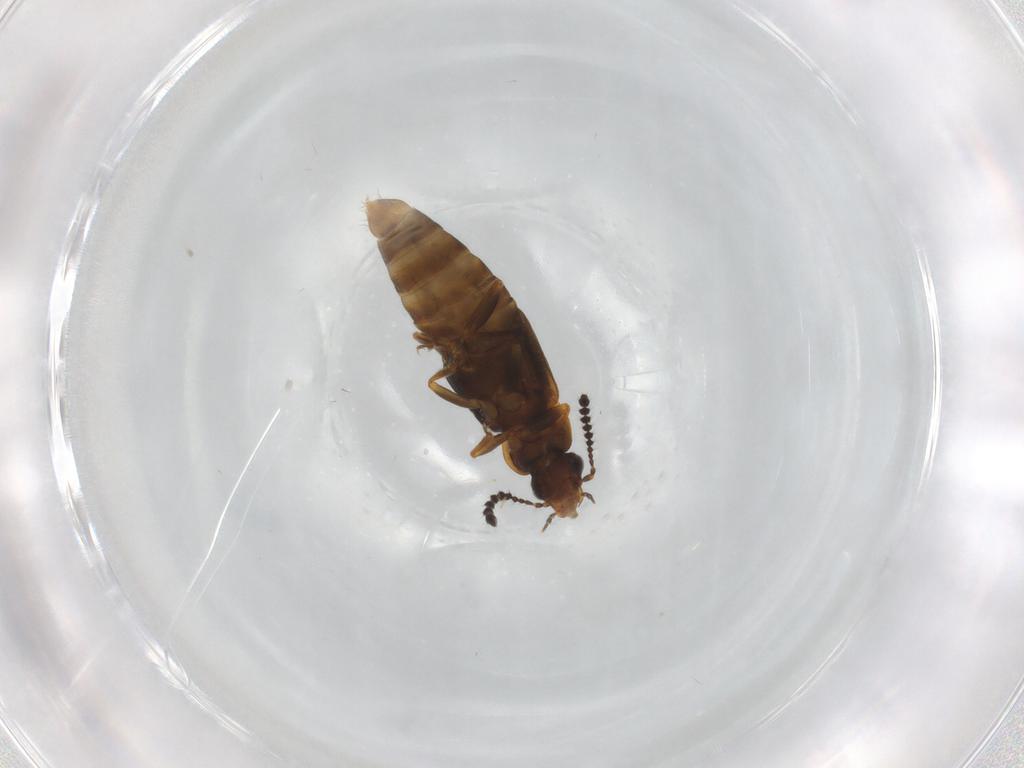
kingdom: Animalia
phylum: Arthropoda
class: Insecta
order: Coleoptera
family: Staphylinidae
